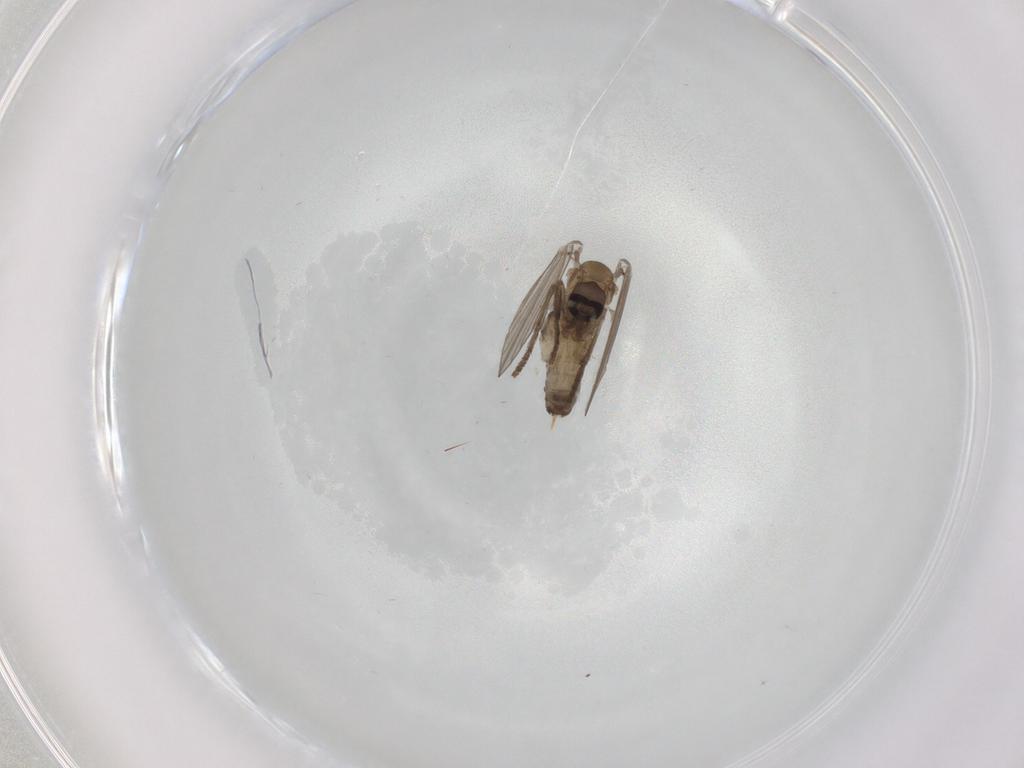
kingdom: Animalia
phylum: Arthropoda
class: Insecta
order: Diptera
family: Psychodidae
